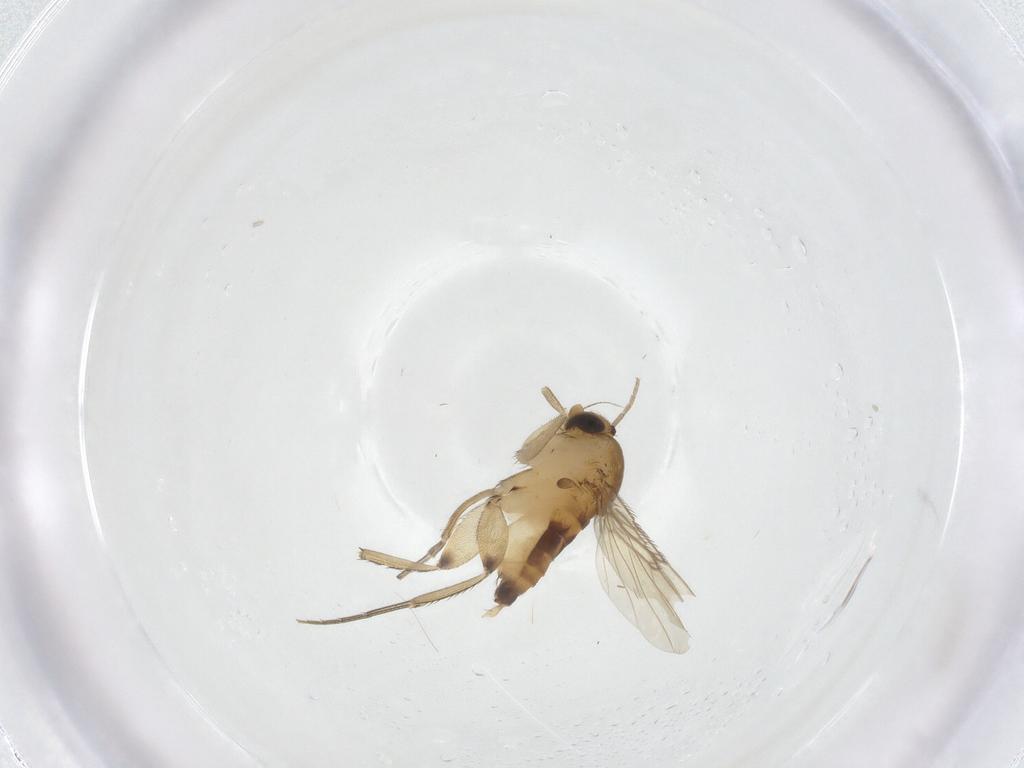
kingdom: Animalia
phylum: Arthropoda
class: Insecta
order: Diptera
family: Phoridae
